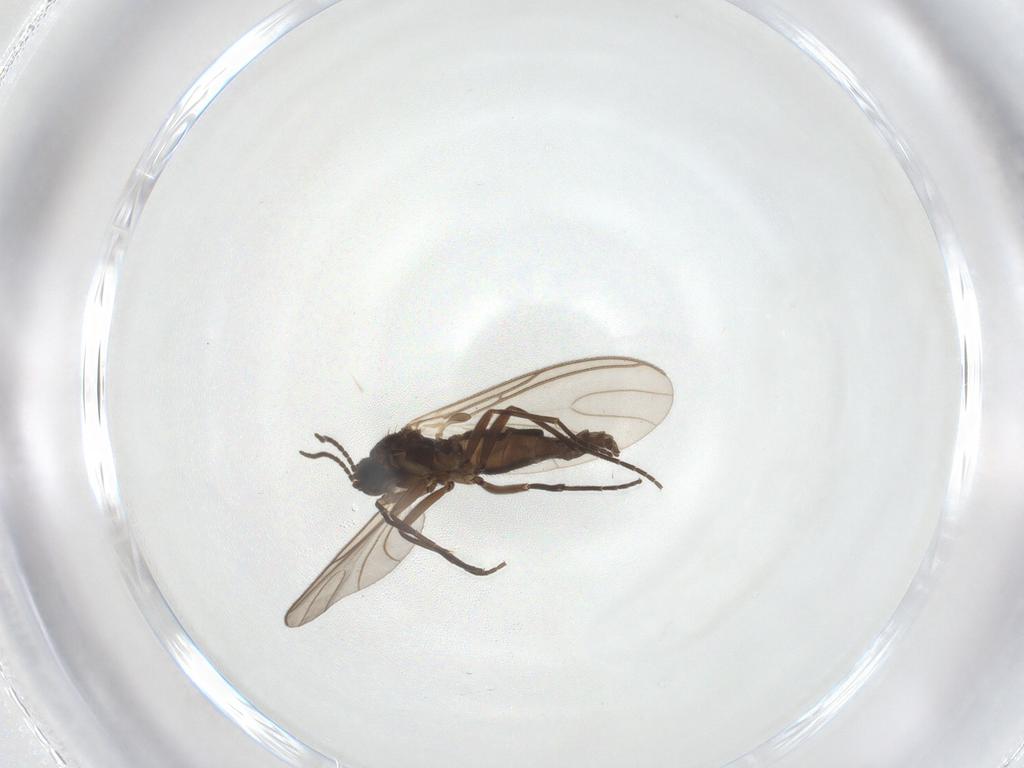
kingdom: Animalia
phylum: Arthropoda
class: Insecta
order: Diptera
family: Sciaridae
